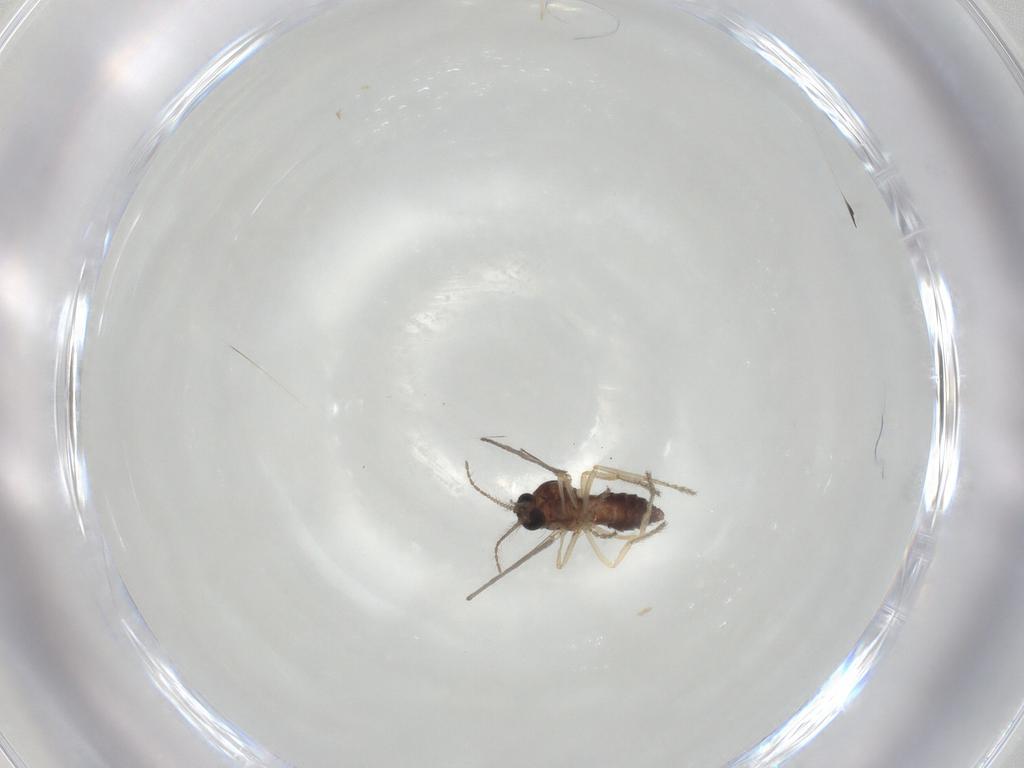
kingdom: Animalia
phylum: Arthropoda
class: Insecta
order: Diptera
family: Ceratopogonidae
